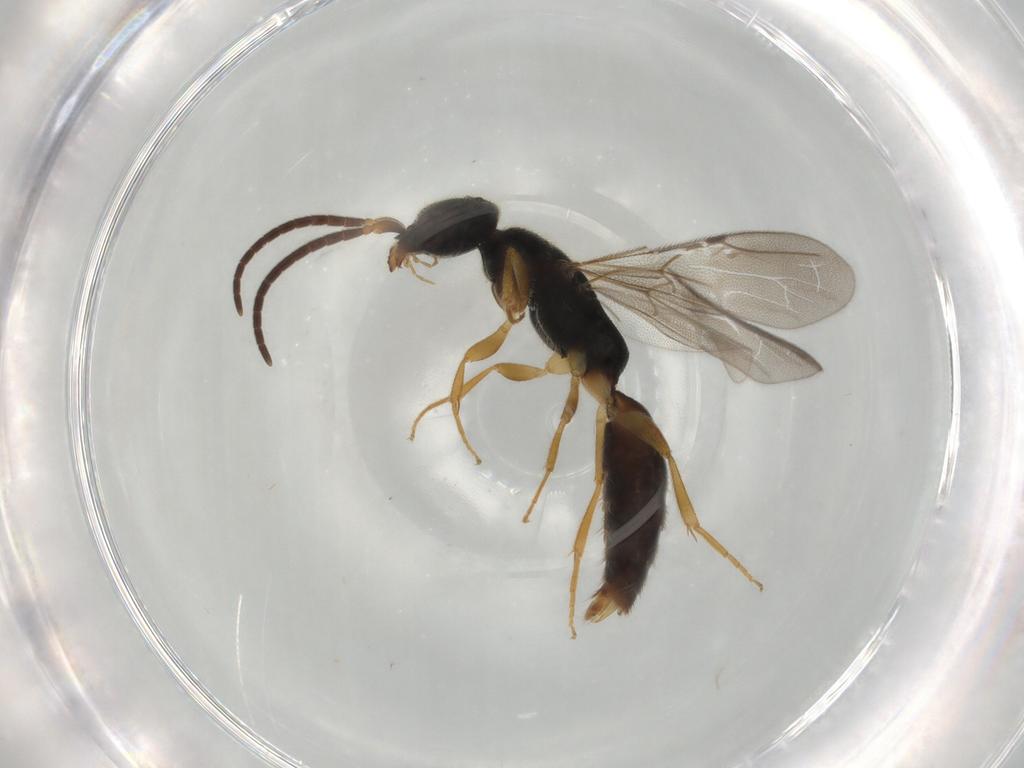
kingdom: Animalia
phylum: Arthropoda
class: Insecta
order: Hymenoptera
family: Bethylidae
